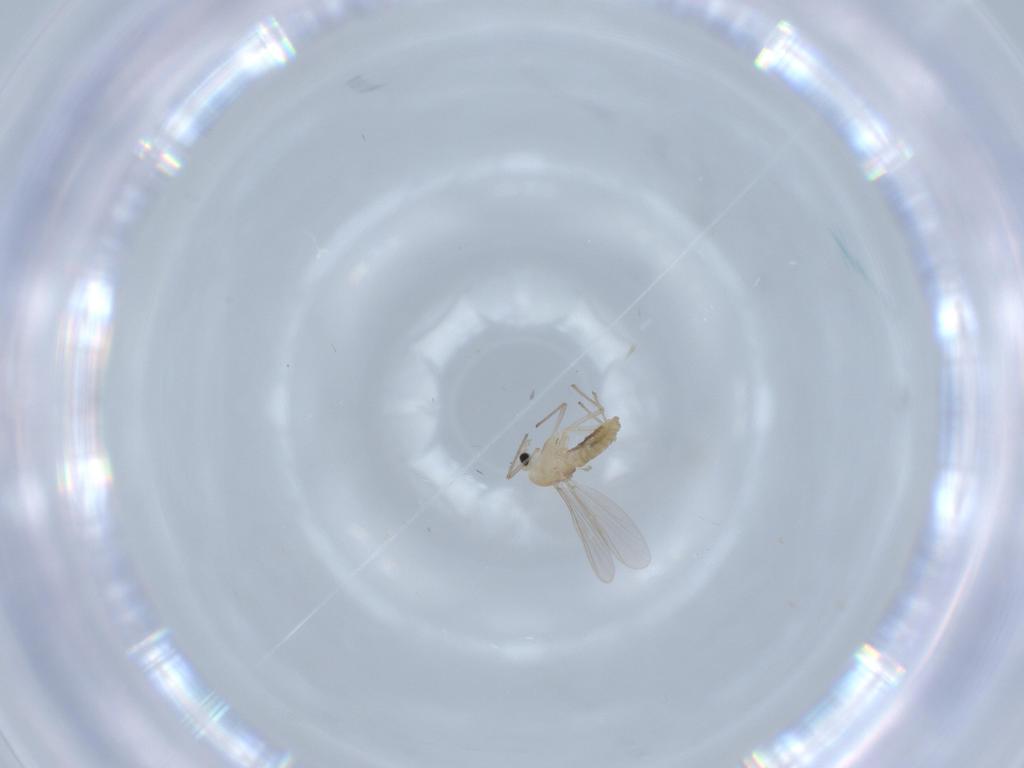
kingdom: Animalia
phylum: Arthropoda
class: Insecta
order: Diptera
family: Chironomidae
